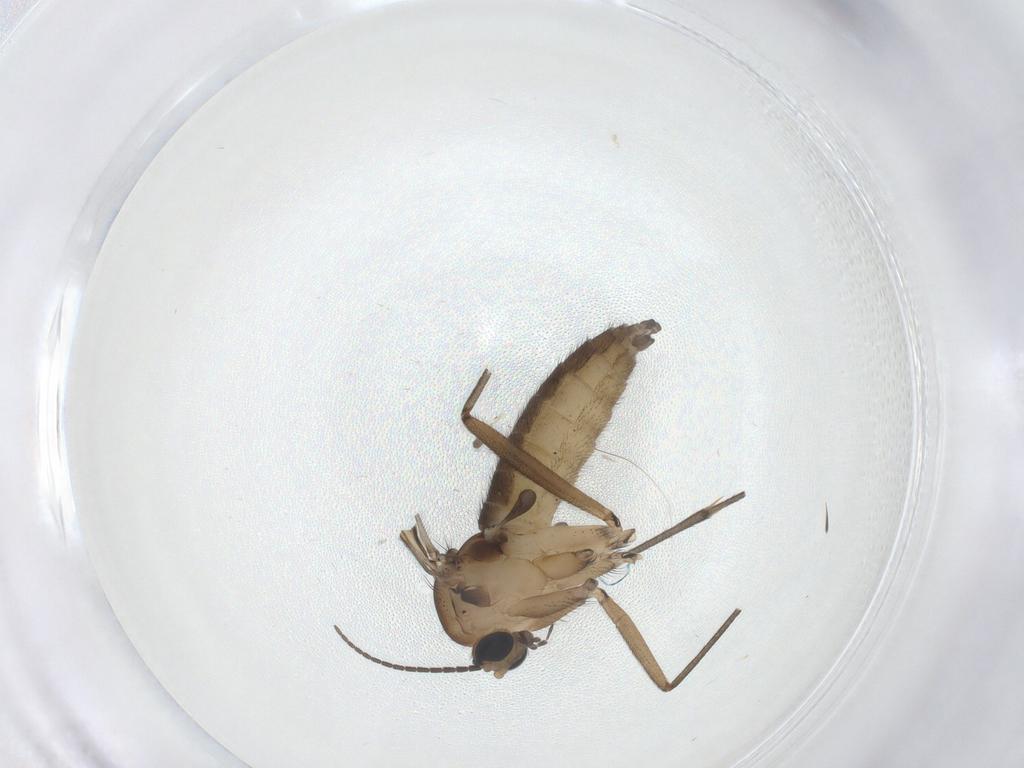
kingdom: Animalia
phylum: Arthropoda
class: Insecta
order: Diptera
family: Sciaridae
